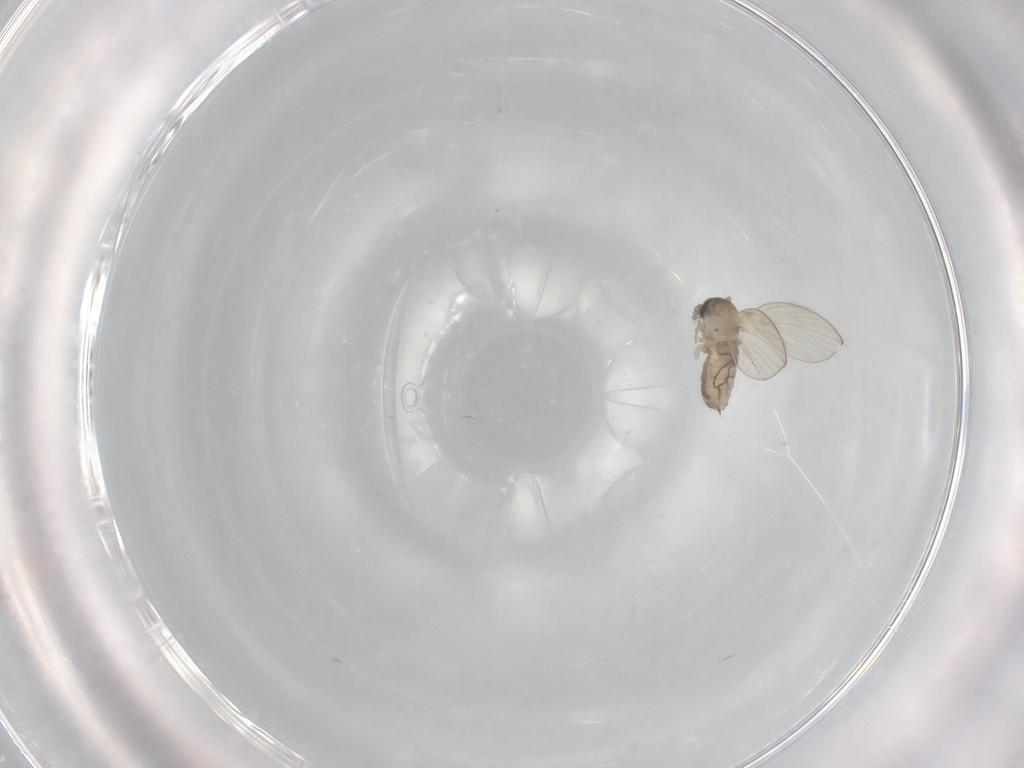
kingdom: Animalia
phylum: Arthropoda
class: Insecta
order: Diptera
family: Psychodidae
